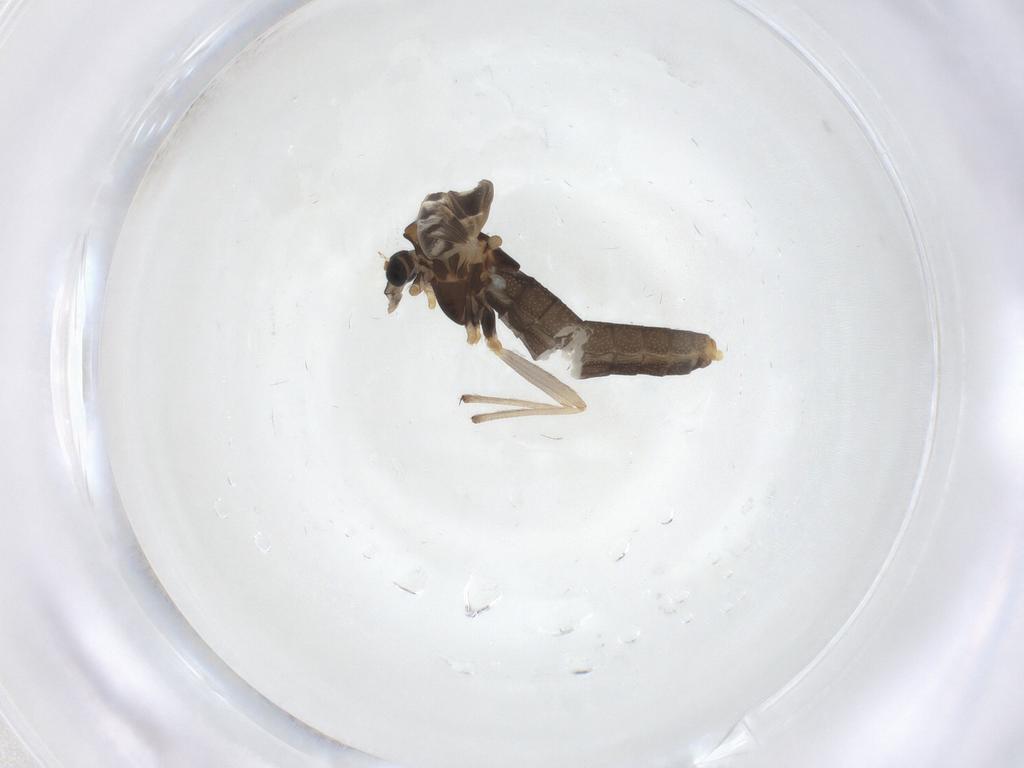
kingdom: Animalia
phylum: Arthropoda
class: Insecta
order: Diptera
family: Chironomidae
